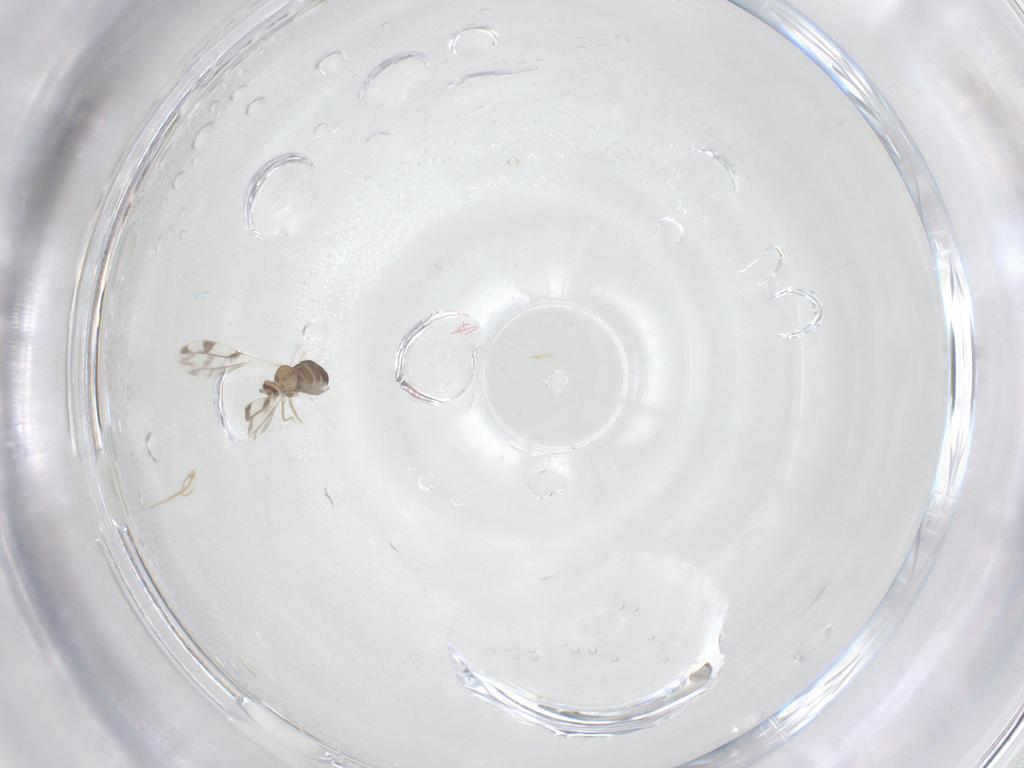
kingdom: Animalia
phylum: Arthropoda
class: Insecta
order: Diptera
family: Cecidomyiidae
